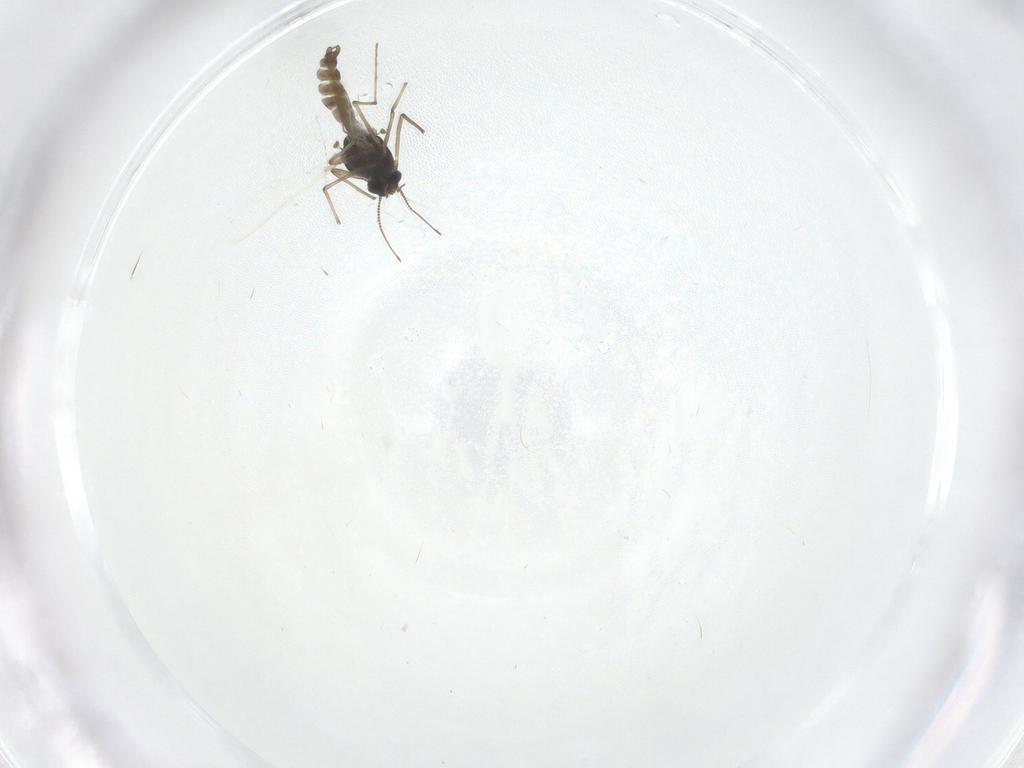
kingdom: Animalia
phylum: Arthropoda
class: Insecta
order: Diptera
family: Chironomidae
